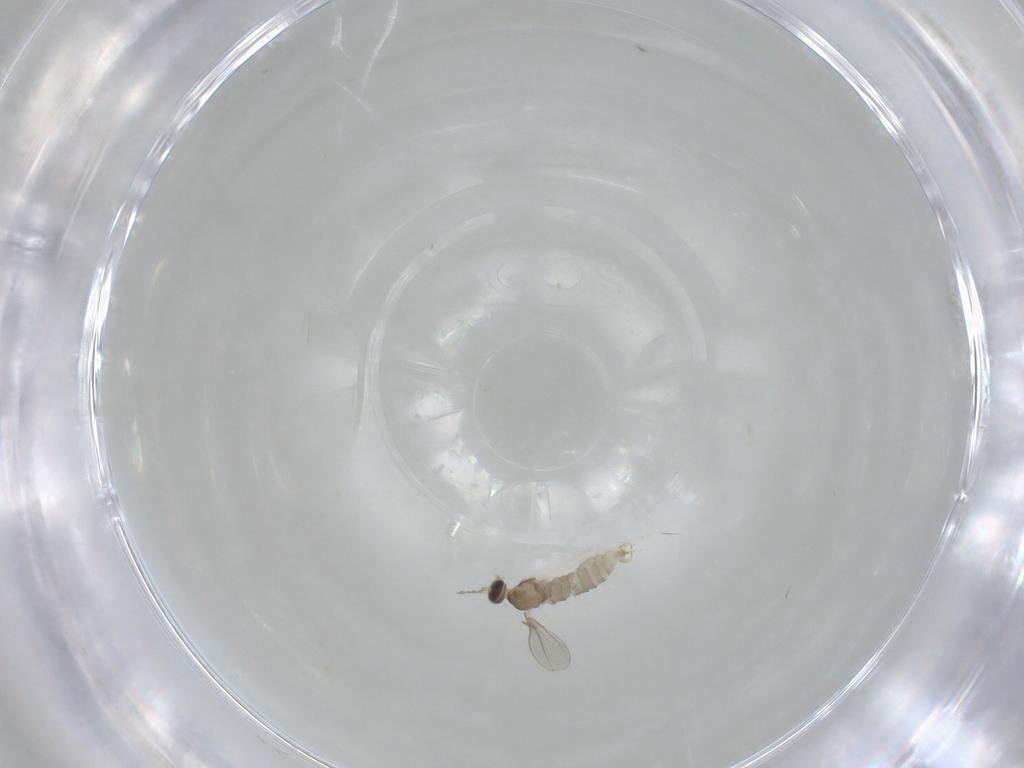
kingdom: Animalia
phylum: Arthropoda
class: Insecta
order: Diptera
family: Cecidomyiidae
